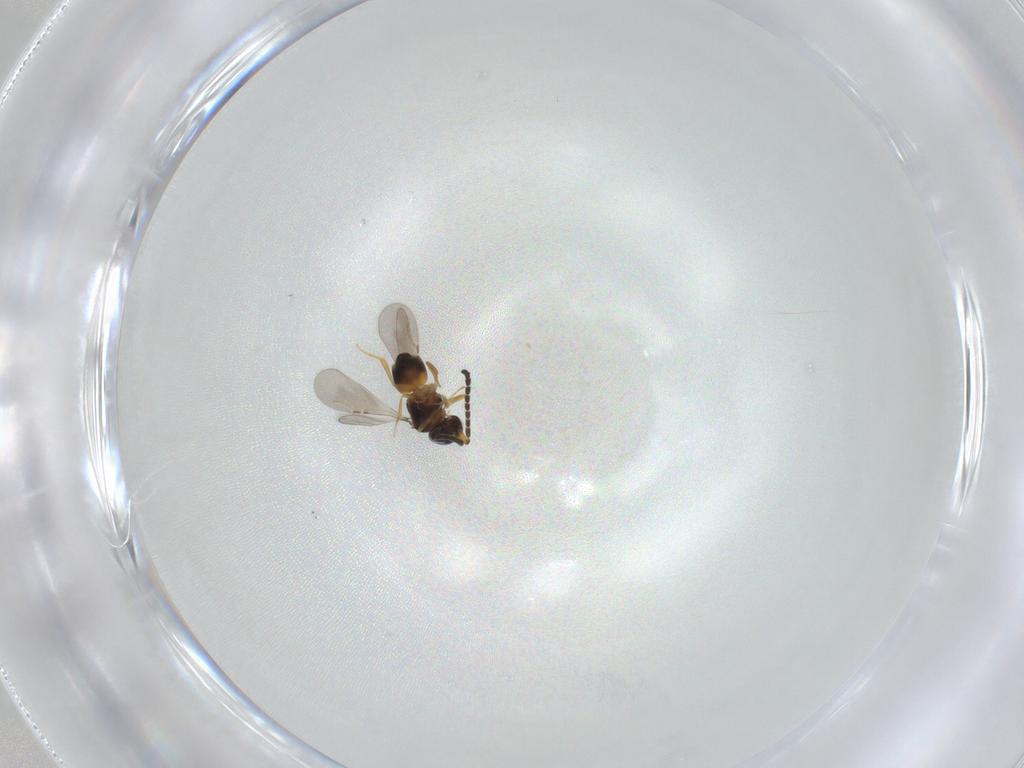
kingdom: Animalia
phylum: Arthropoda
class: Insecta
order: Hymenoptera
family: Ceraphronidae
